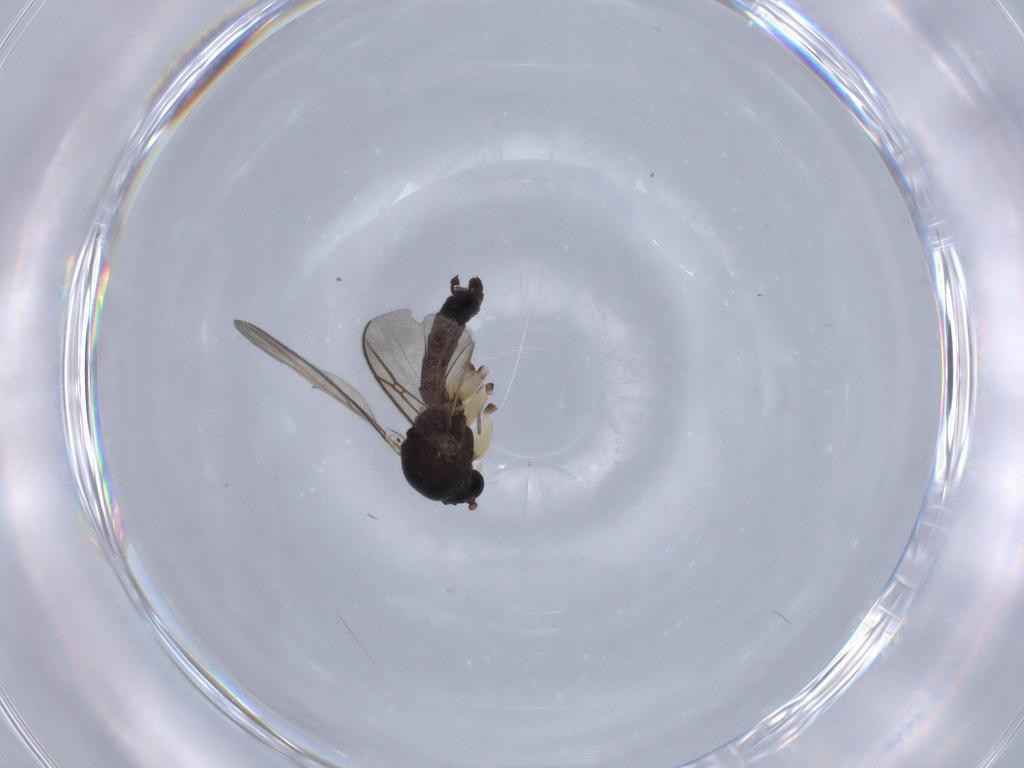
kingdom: Animalia
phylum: Arthropoda
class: Insecta
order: Diptera
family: Chironomidae
